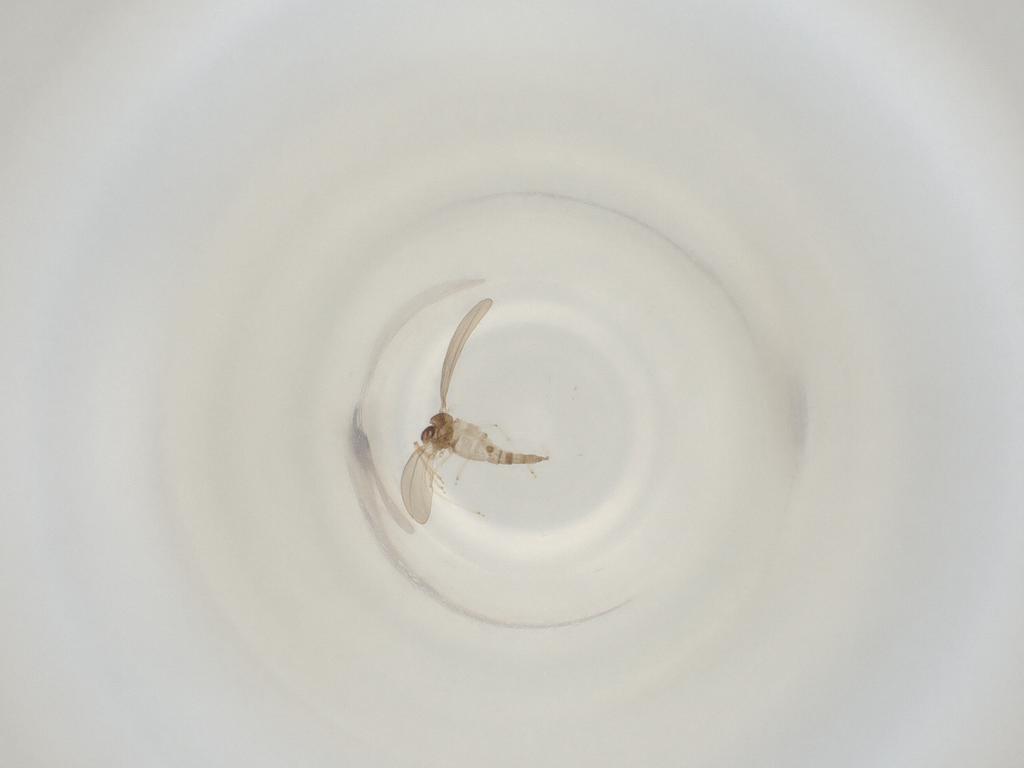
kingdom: Animalia
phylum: Arthropoda
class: Insecta
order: Diptera
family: Cecidomyiidae
